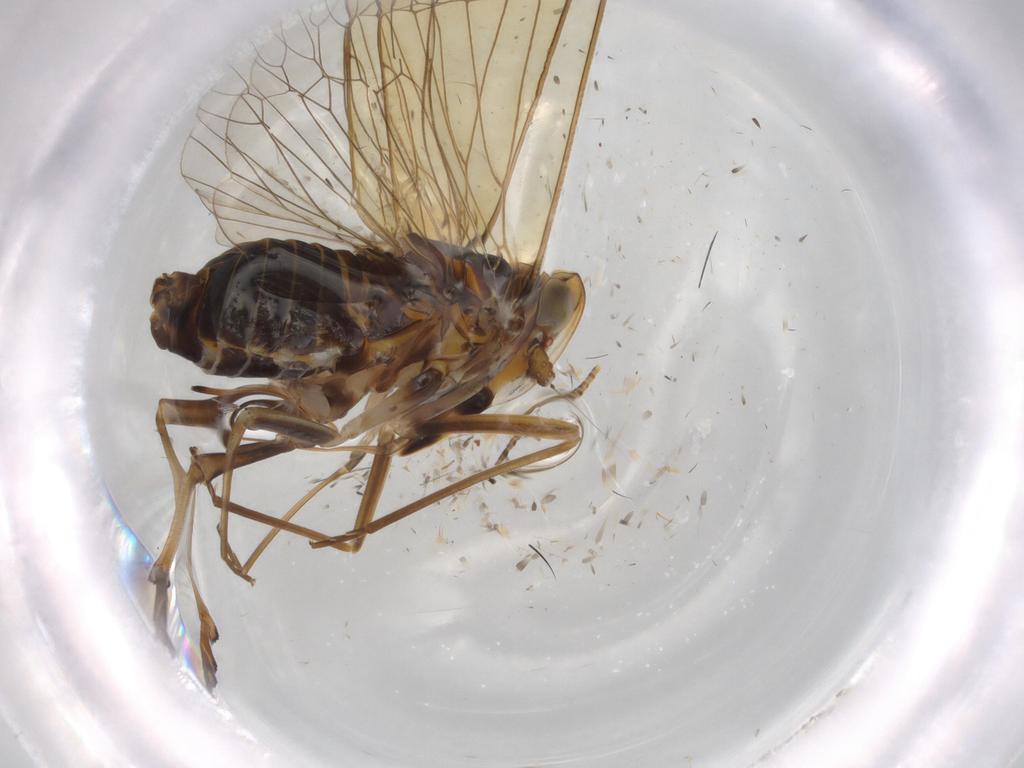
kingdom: Animalia
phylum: Arthropoda
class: Insecta
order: Hemiptera
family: Kinnaridae
